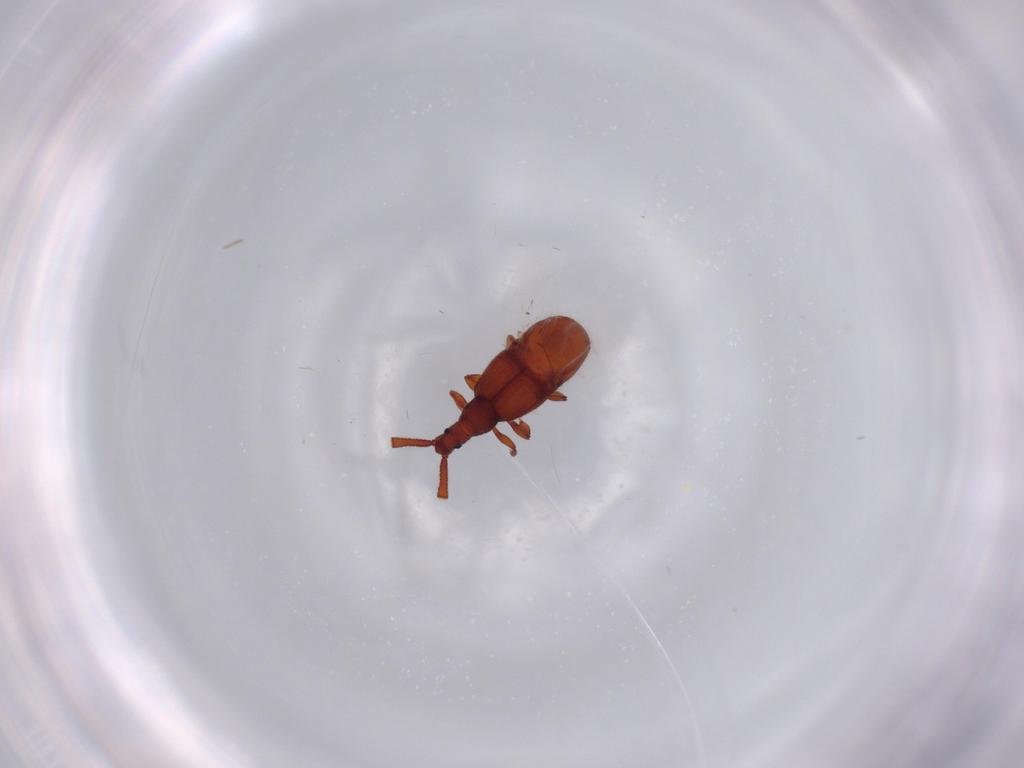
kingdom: Animalia
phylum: Arthropoda
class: Insecta
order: Coleoptera
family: Staphylinidae
